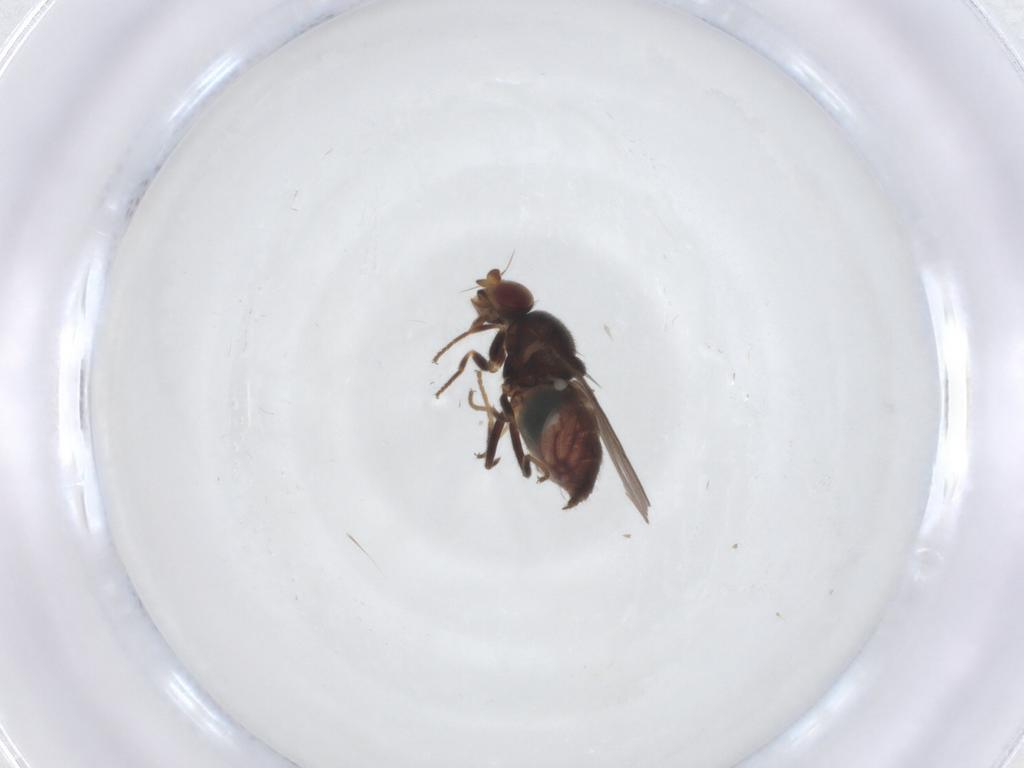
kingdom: Animalia
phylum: Arthropoda
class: Insecta
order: Diptera
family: Chloropidae
